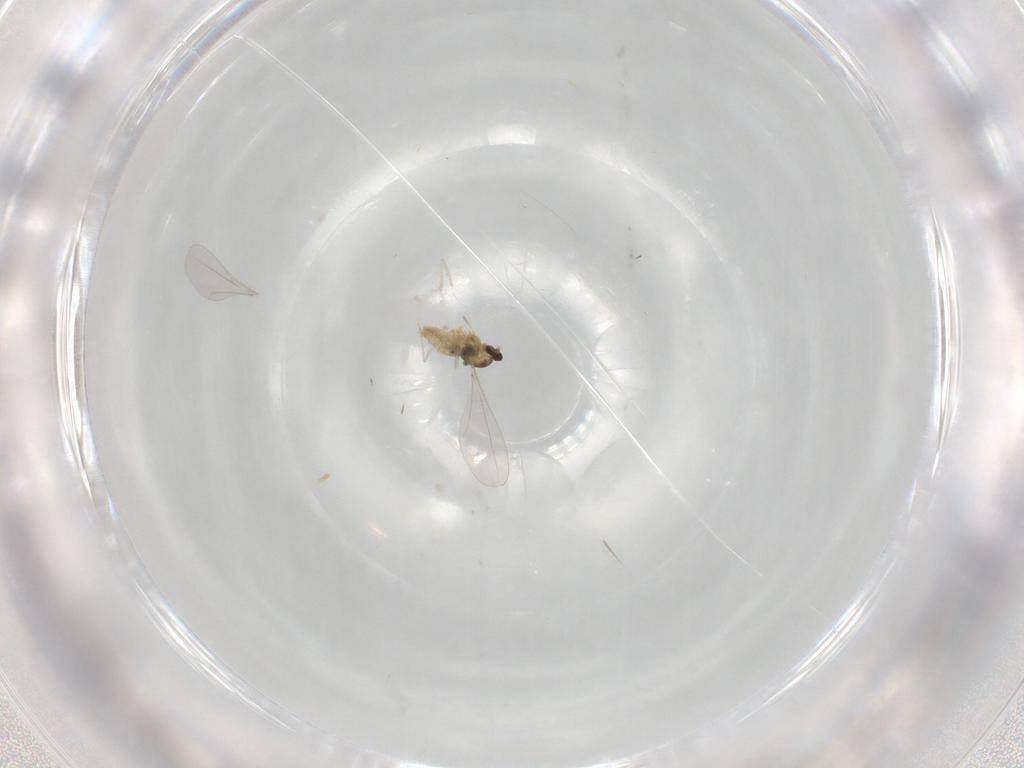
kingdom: Animalia
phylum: Arthropoda
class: Insecta
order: Diptera
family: Cecidomyiidae
